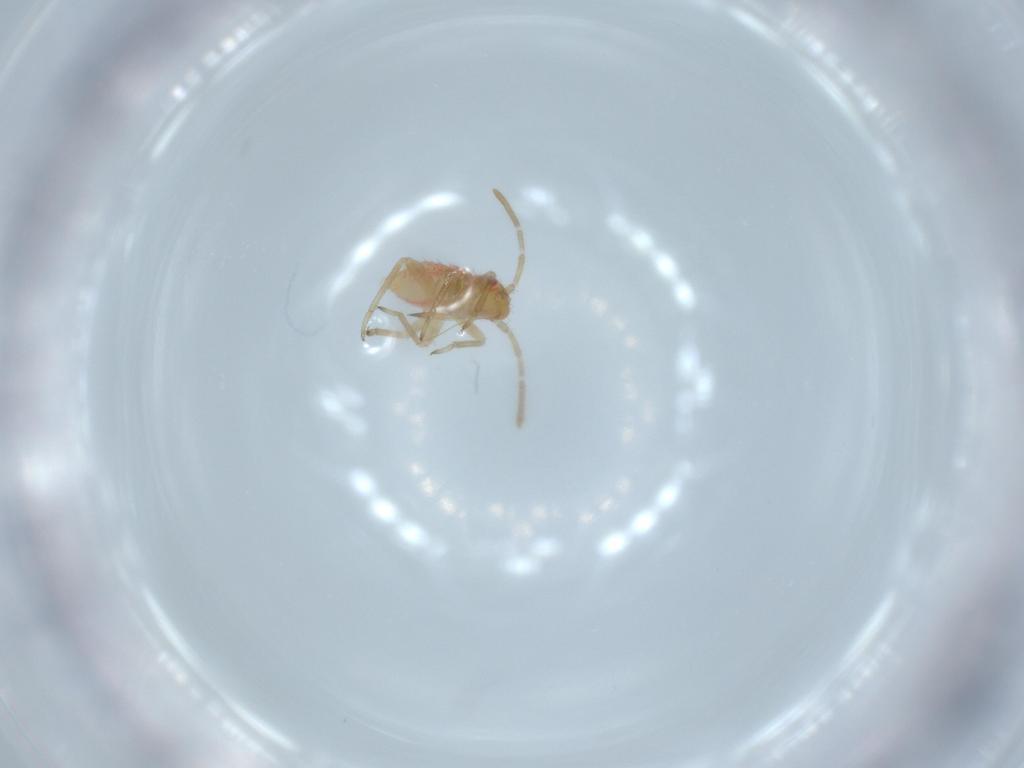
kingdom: Animalia
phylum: Arthropoda
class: Insecta
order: Hemiptera
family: Miridae
